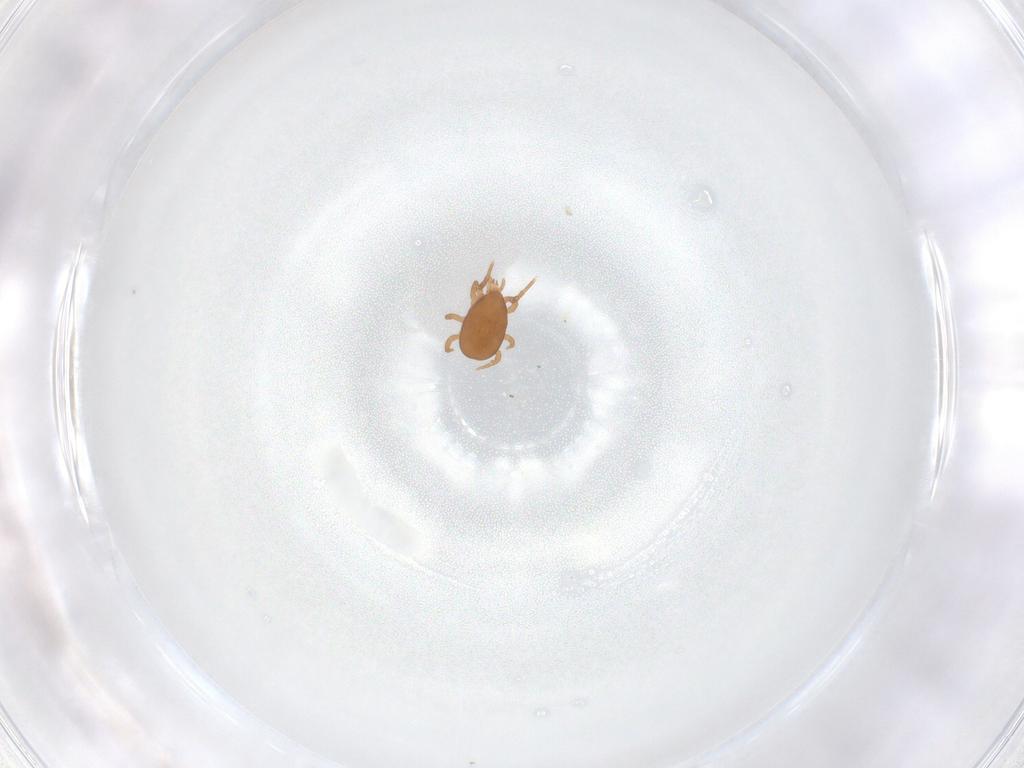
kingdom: Animalia
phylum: Arthropoda
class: Arachnida
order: Mesostigmata
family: Eviphididae
